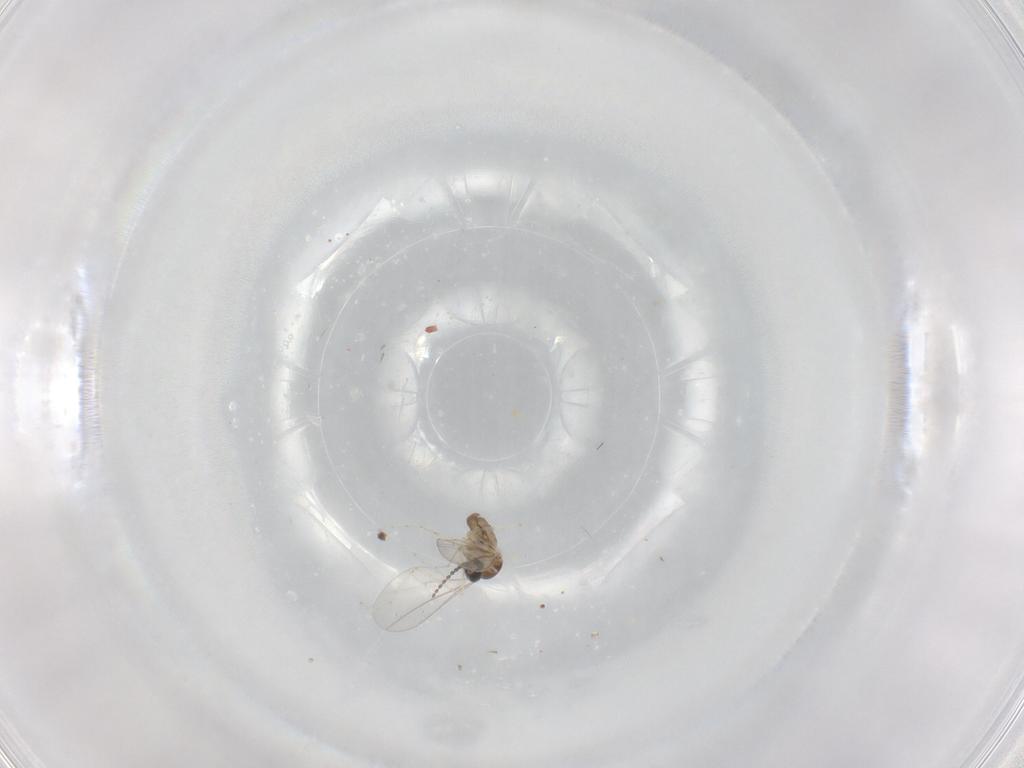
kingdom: Animalia
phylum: Arthropoda
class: Insecta
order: Diptera
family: Cecidomyiidae
